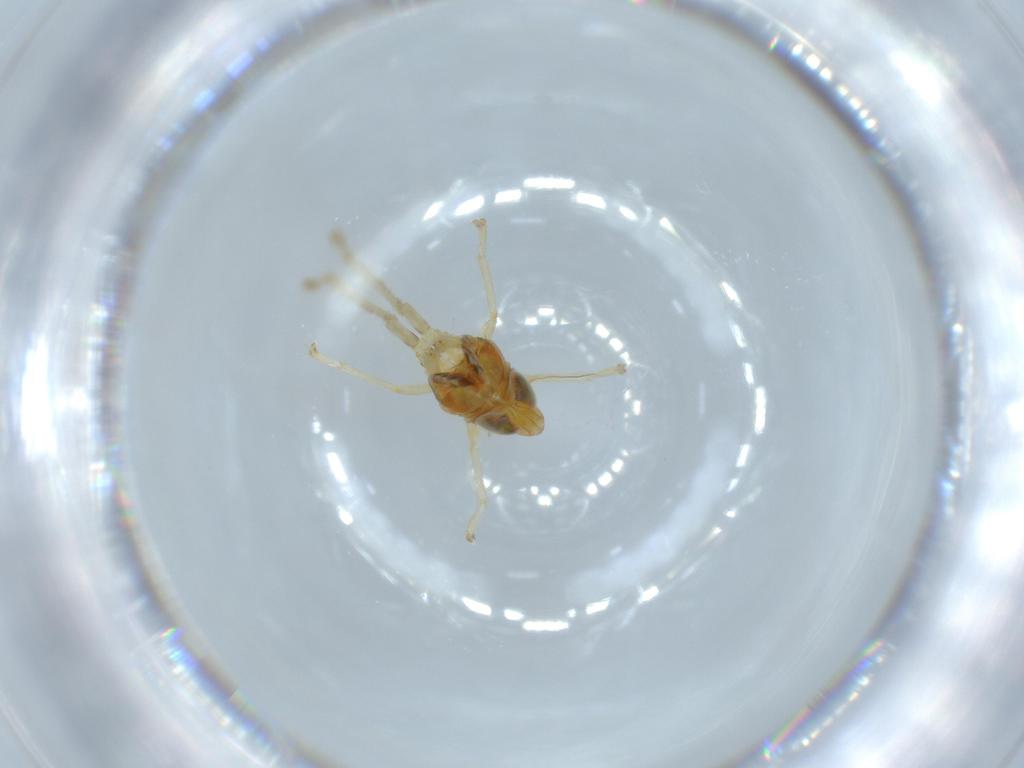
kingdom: Animalia
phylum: Arthropoda
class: Insecta
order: Hemiptera
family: Cicadellidae
